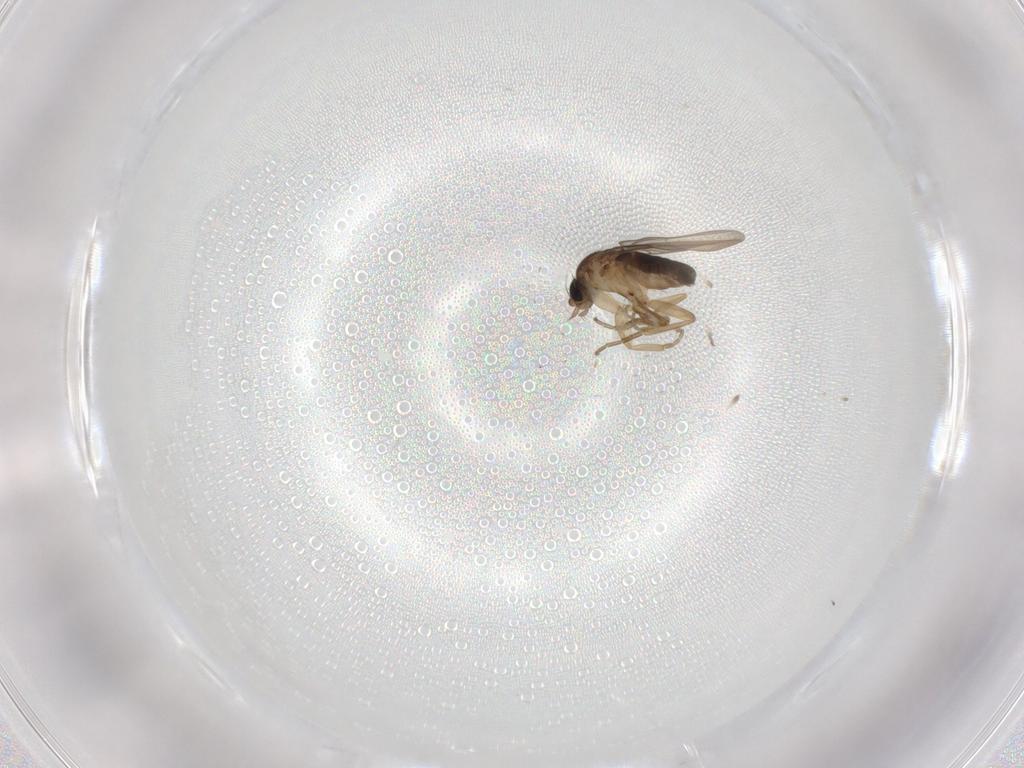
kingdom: Animalia
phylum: Arthropoda
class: Insecta
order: Diptera
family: Phoridae
